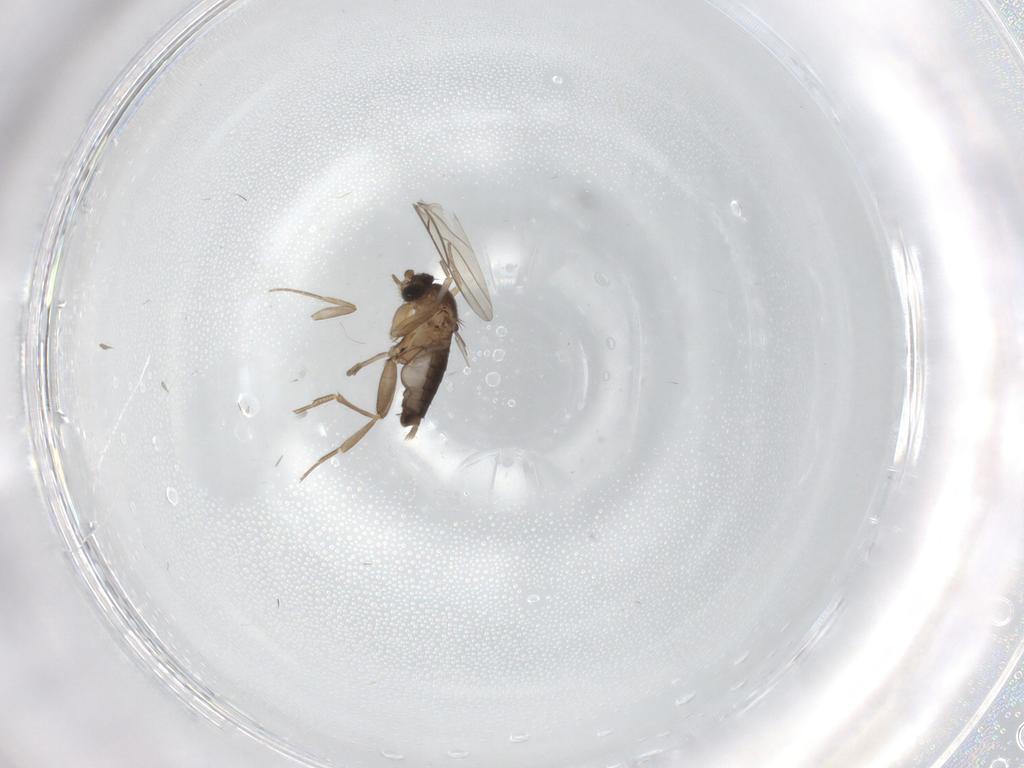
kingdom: Animalia
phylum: Arthropoda
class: Insecta
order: Diptera
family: Phoridae
